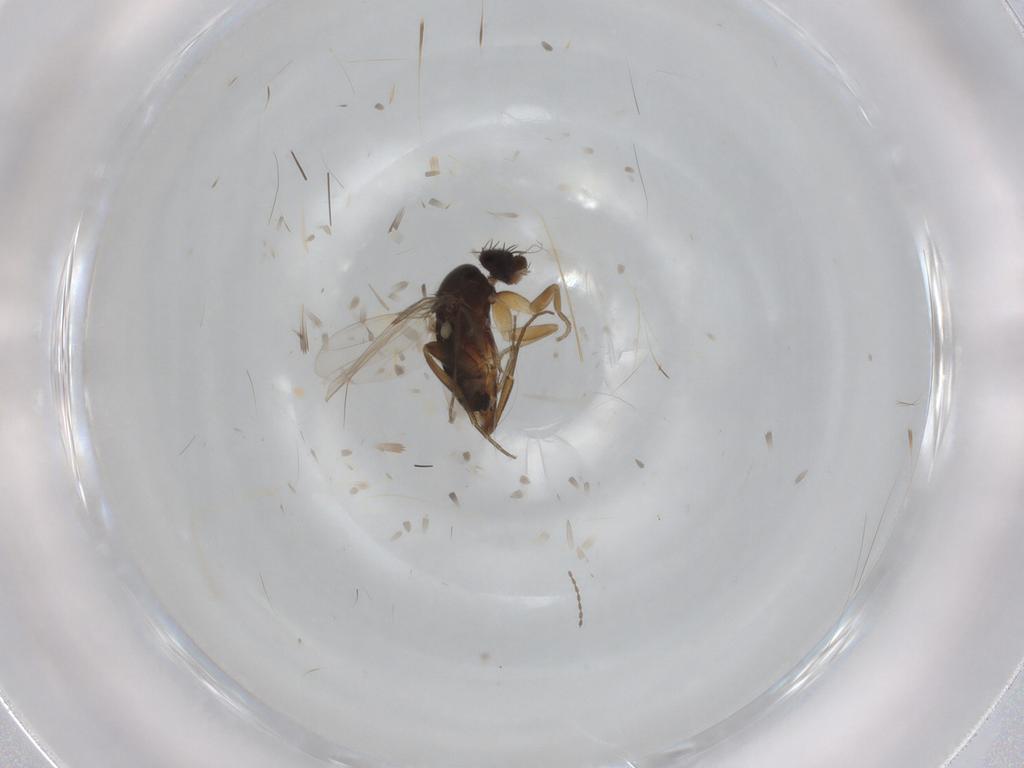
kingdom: Animalia
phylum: Arthropoda
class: Insecta
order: Diptera
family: Phoridae
